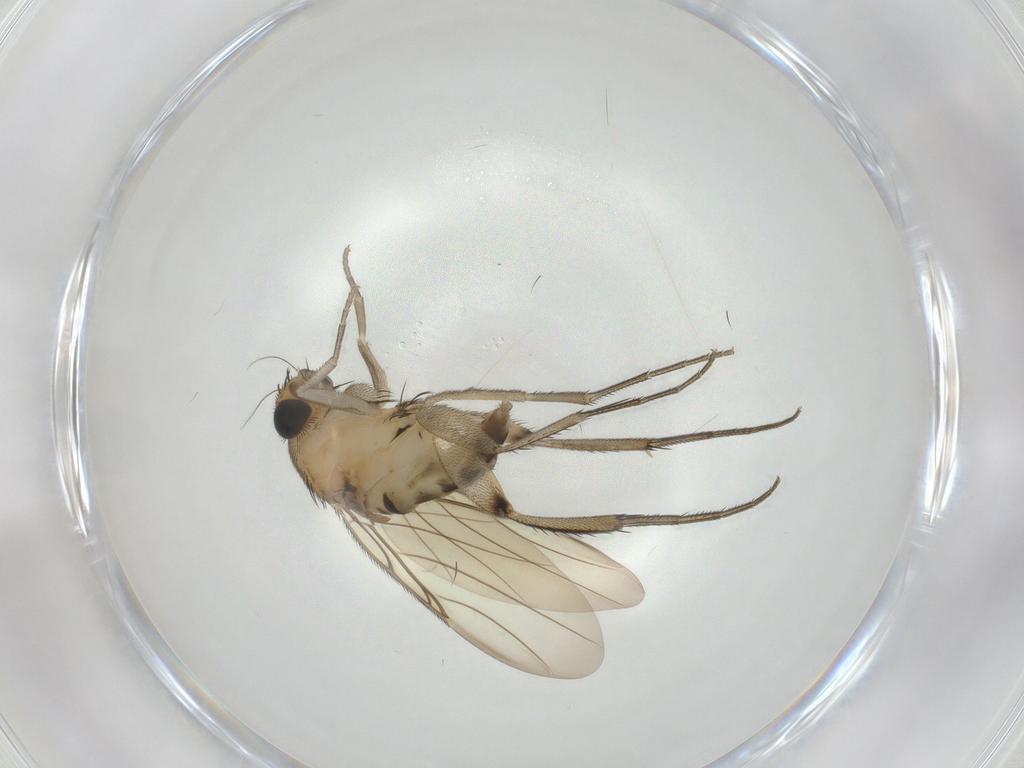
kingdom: Animalia
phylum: Arthropoda
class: Insecta
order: Diptera
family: Phoridae
